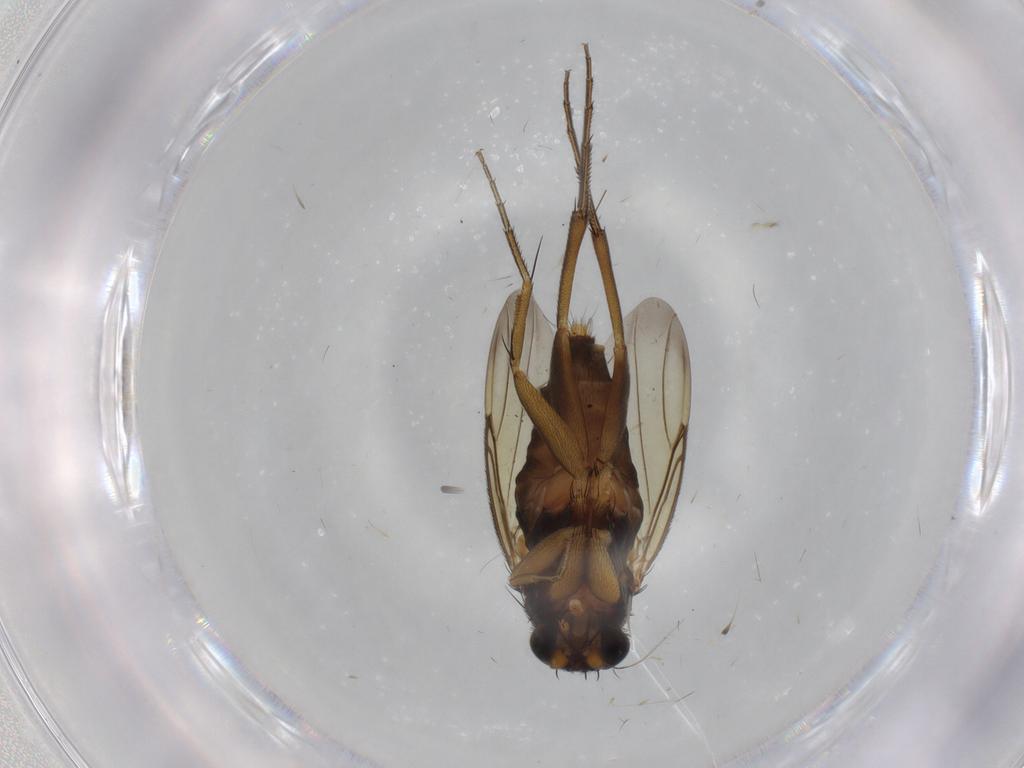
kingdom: Animalia
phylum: Arthropoda
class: Insecta
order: Diptera
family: Phoridae
